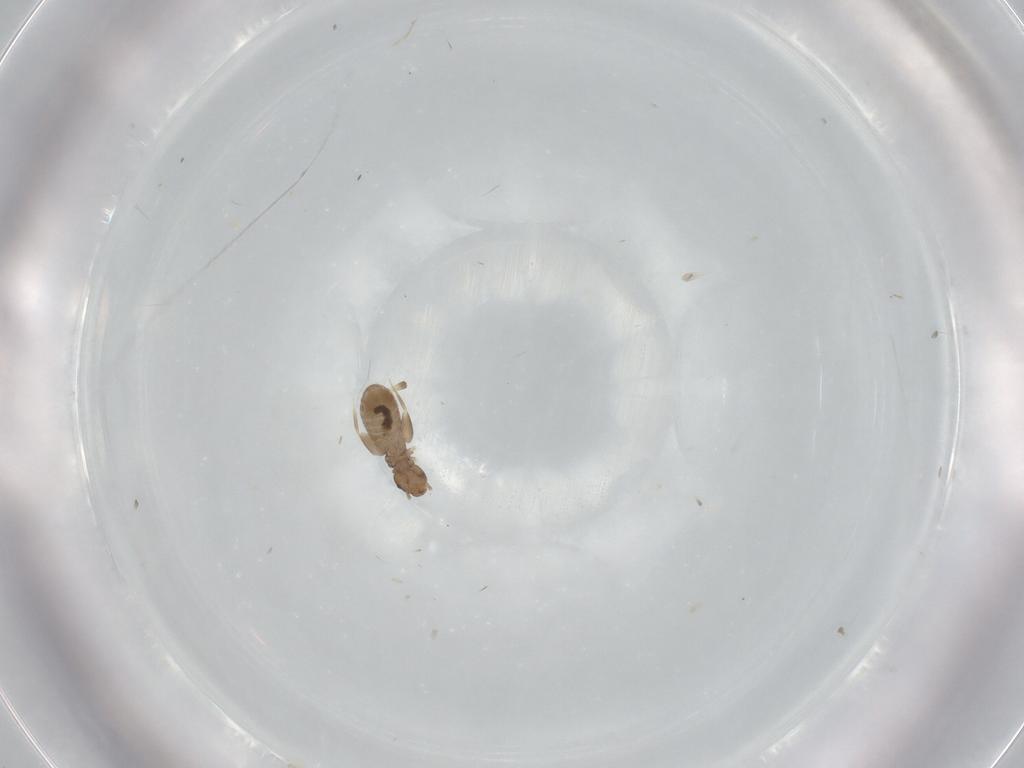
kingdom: Animalia
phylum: Arthropoda
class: Insecta
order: Psocodea
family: Liposcelididae
